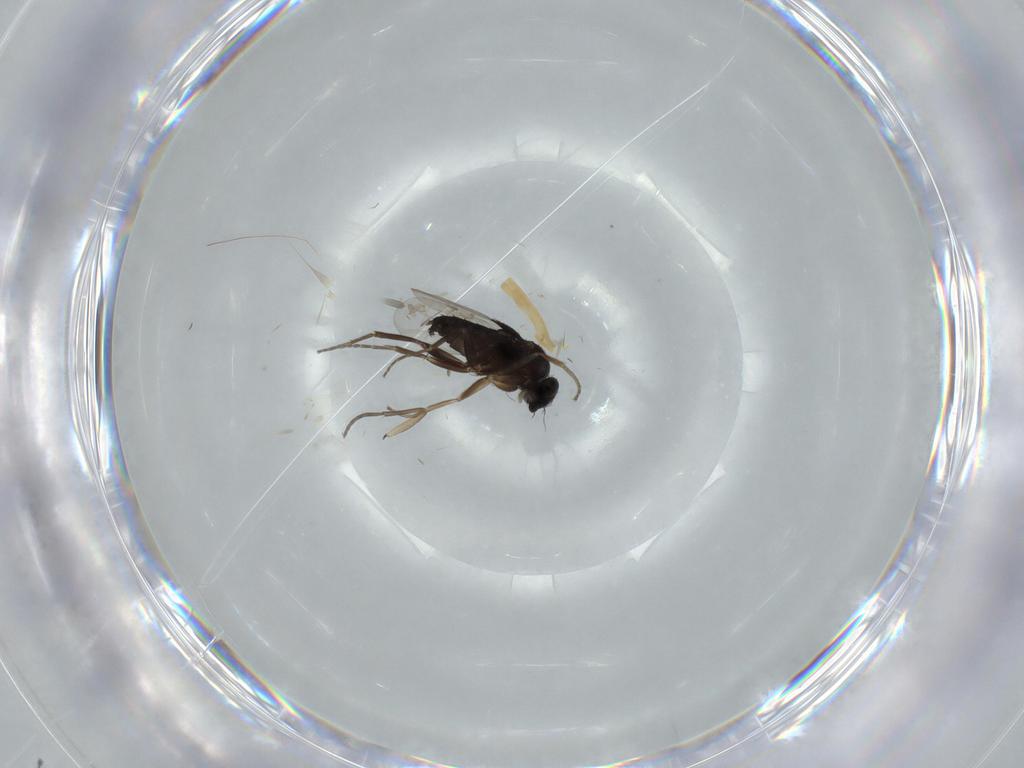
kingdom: Animalia
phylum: Arthropoda
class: Insecta
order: Diptera
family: Phoridae
